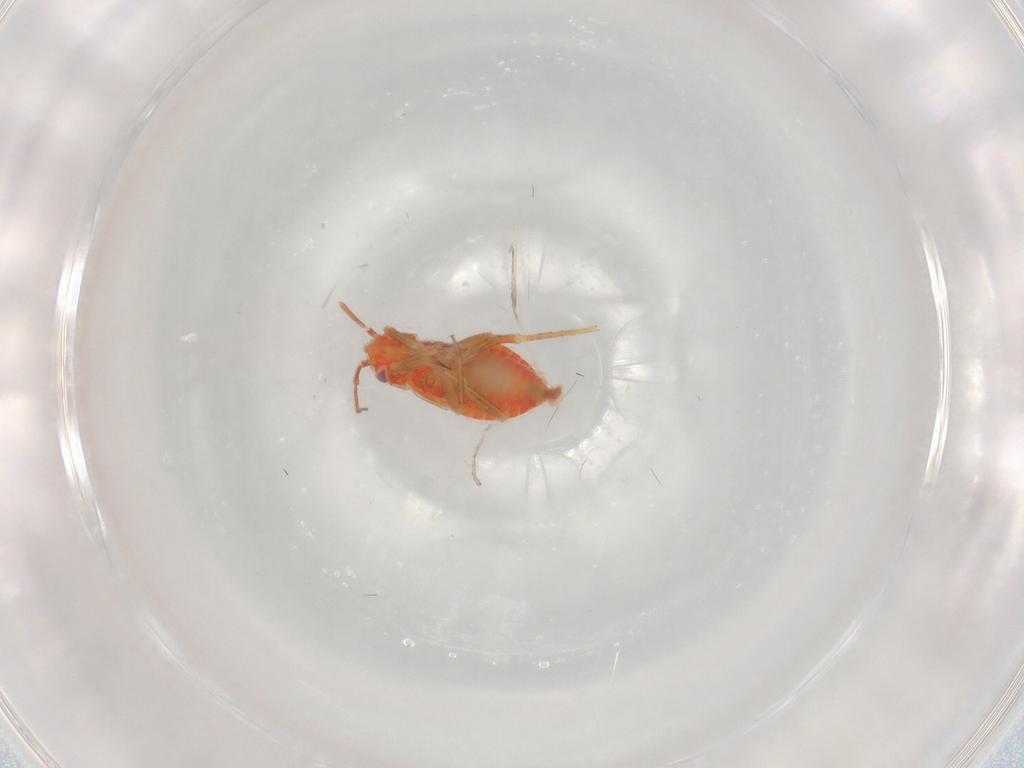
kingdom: Animalia
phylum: Arthropoda
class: Insecta
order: Hemiptera
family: Miridae
